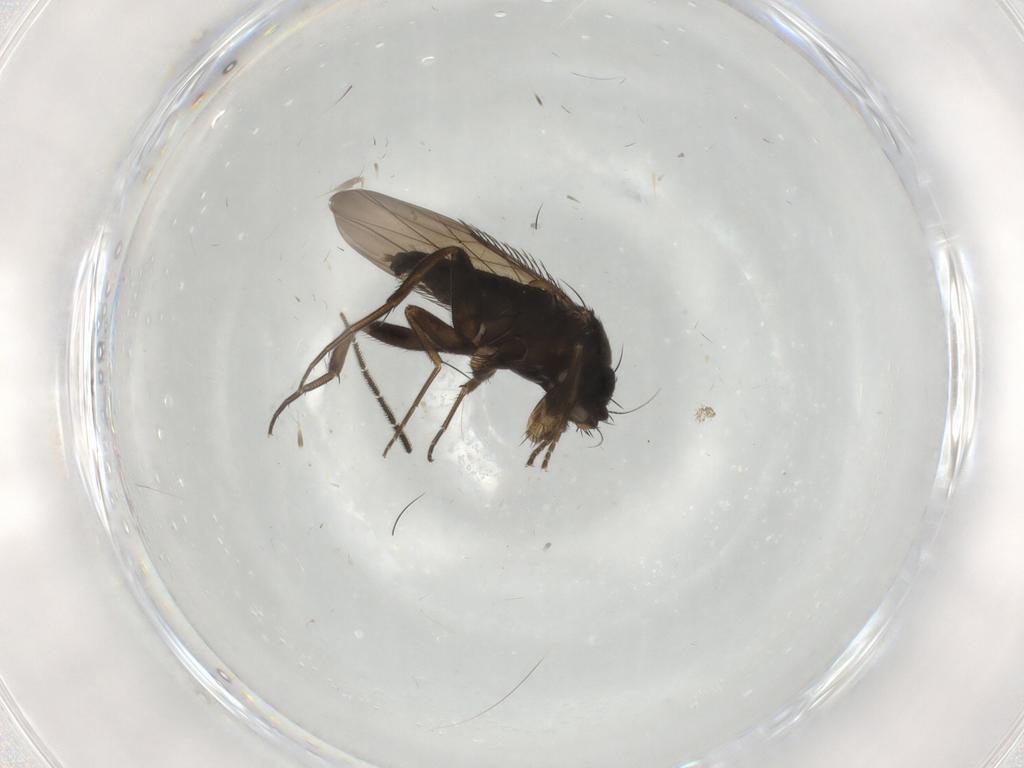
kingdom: Animalia
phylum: Arthropoda
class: Insecta
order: Diptera
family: Phoridae
